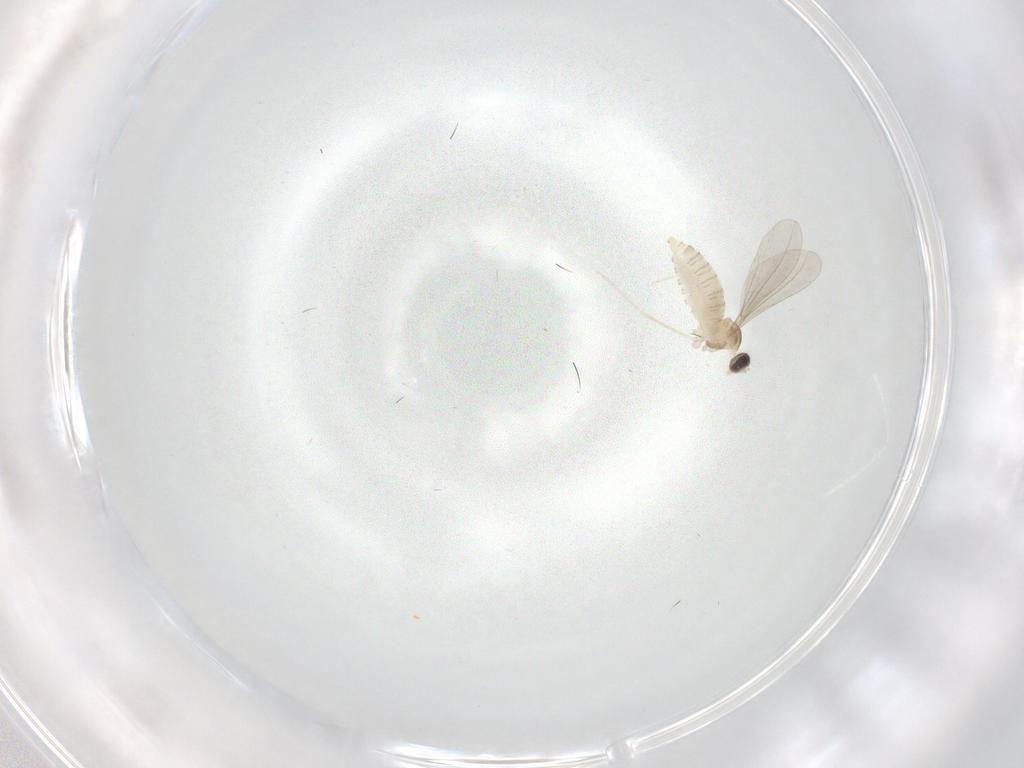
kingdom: Animalia
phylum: Arthropoda
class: Insecta
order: Diptera
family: Cecidomyiidae
